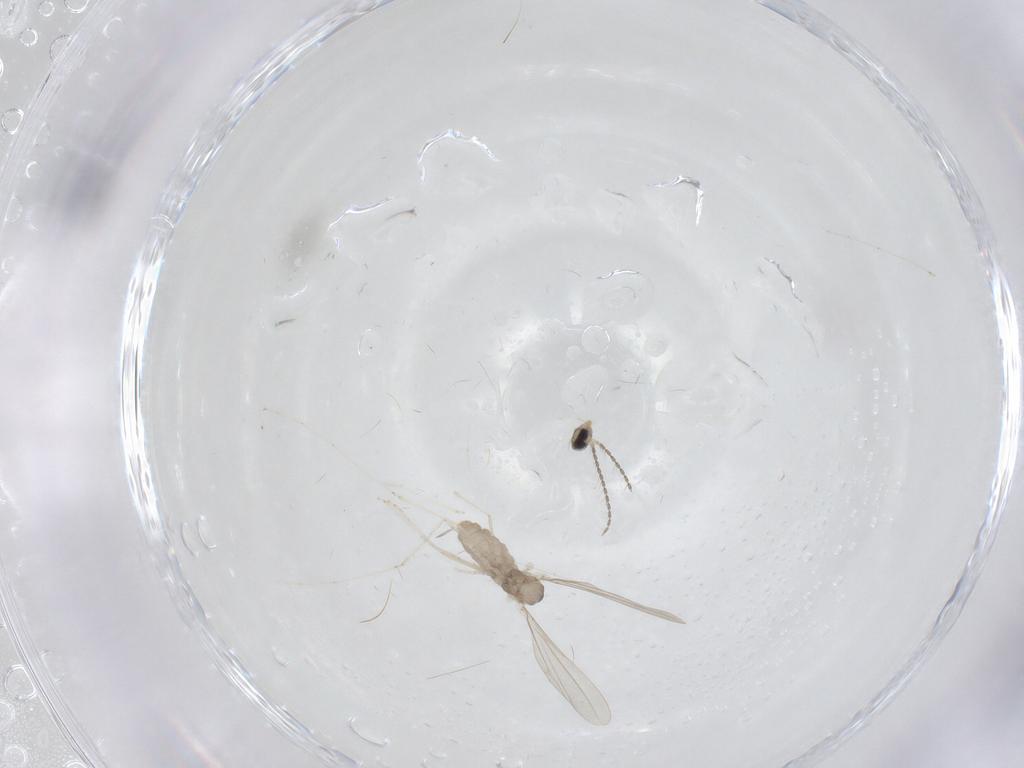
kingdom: Animalia
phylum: Arthropoda
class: Insecta
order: Diptera
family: Cecidomyiidae
